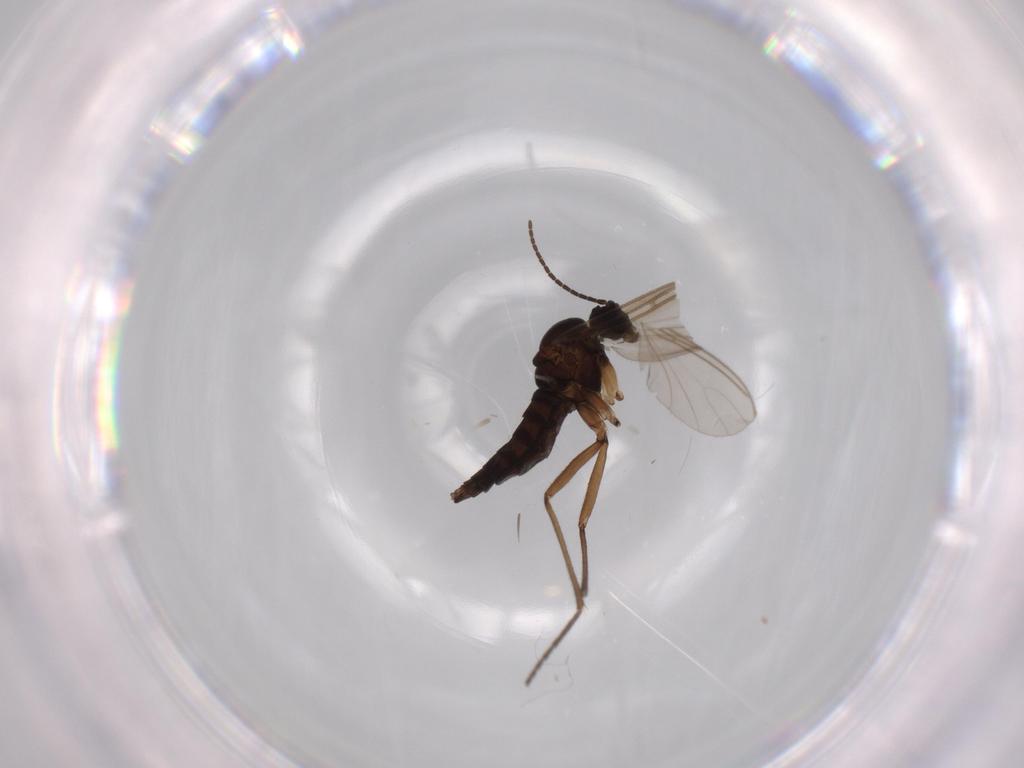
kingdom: Animalia
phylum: Arthropoda
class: Insecta
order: Diptera
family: Sciaridae
